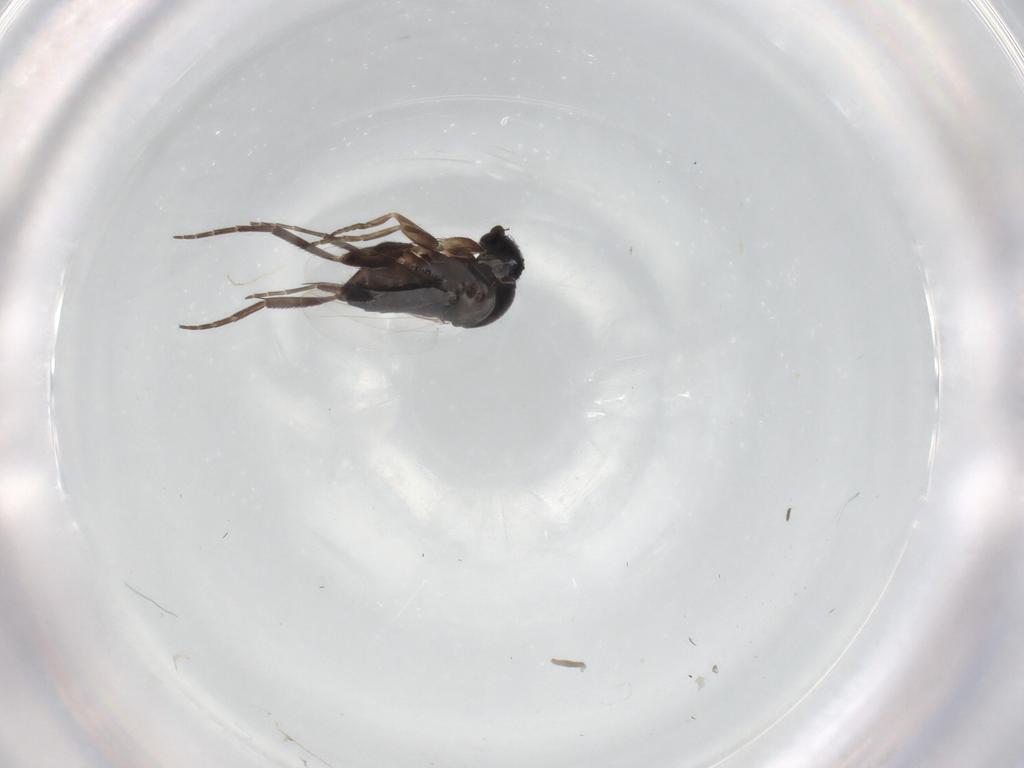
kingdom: Animalia
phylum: Arthropoda
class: Insecta
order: Diptera
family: Phoridae
